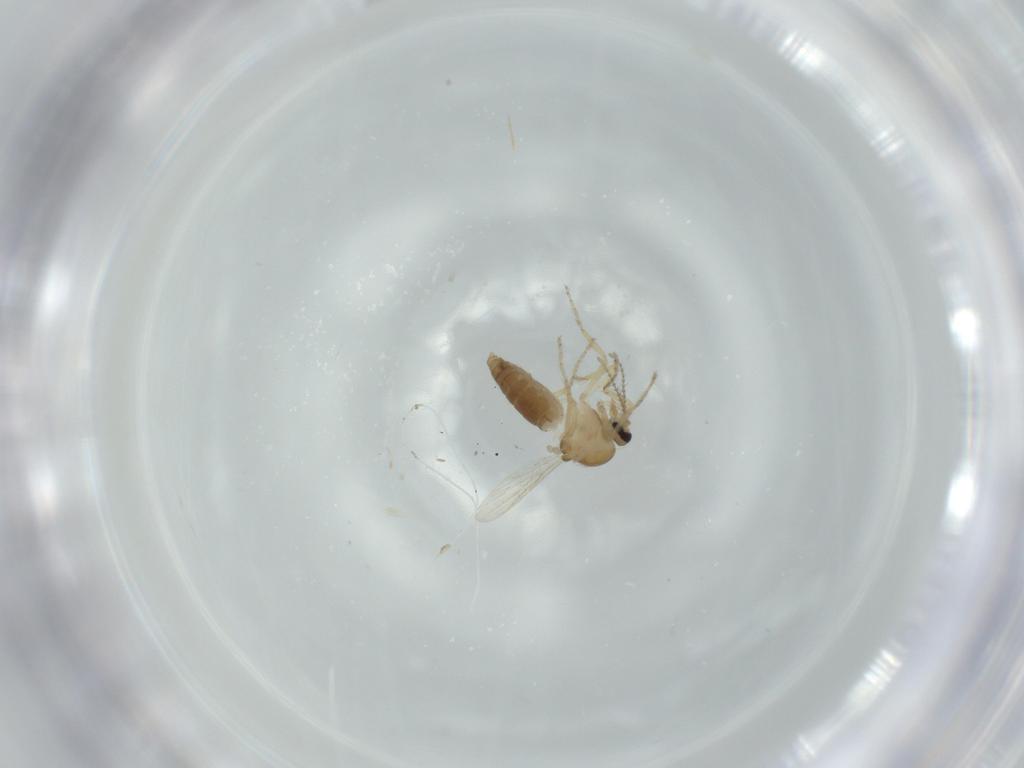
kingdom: Animalia
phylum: Arthropoda
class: Insecta
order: Diptera
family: Ceratopogonidae
